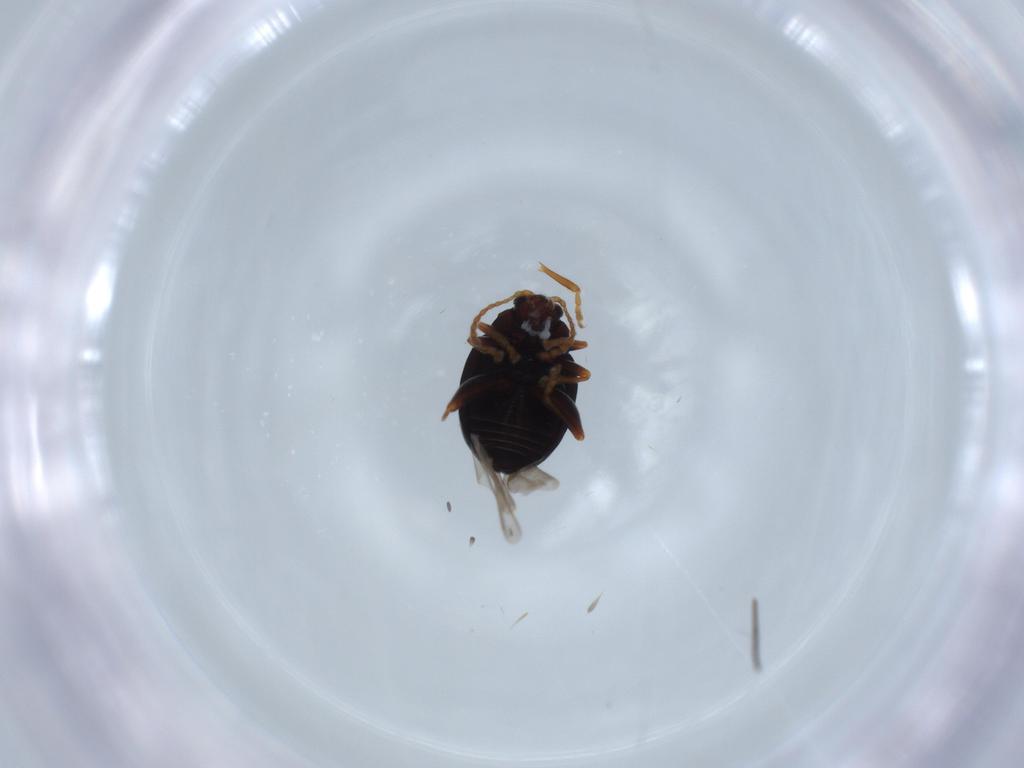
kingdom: Animalia
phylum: Arthropoda
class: Insecta
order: Coleoptera
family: Chrysomelidae
